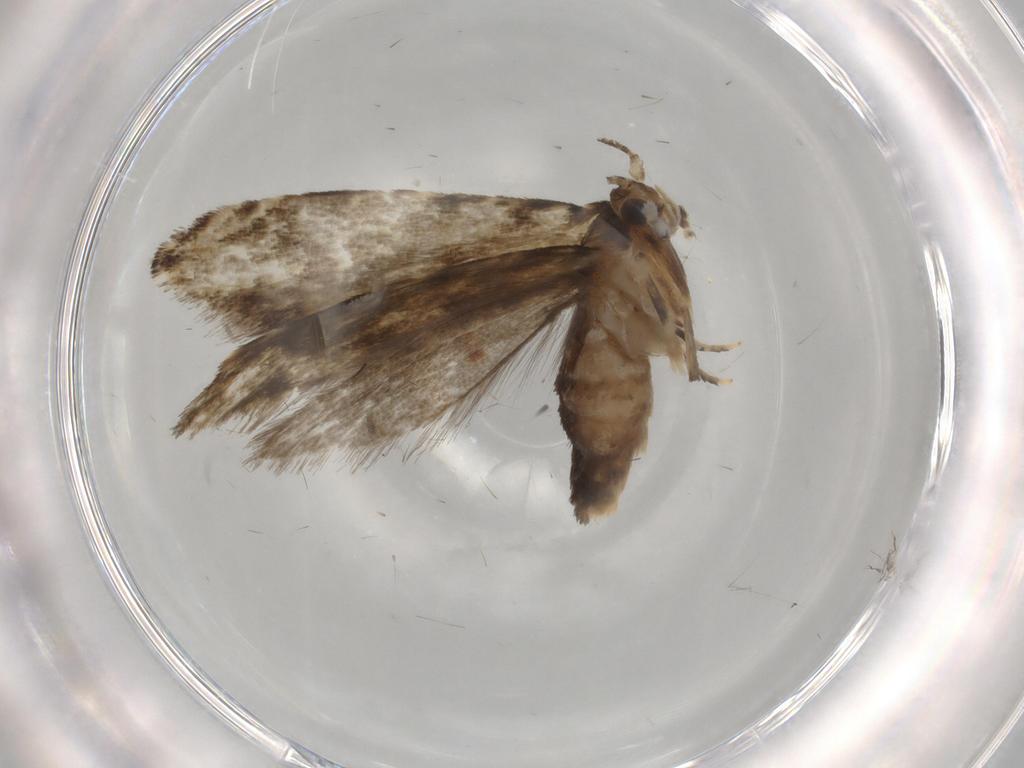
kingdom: Animalia
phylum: Arthropoda
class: Insecta
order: Lepidoptera
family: Tineidae
